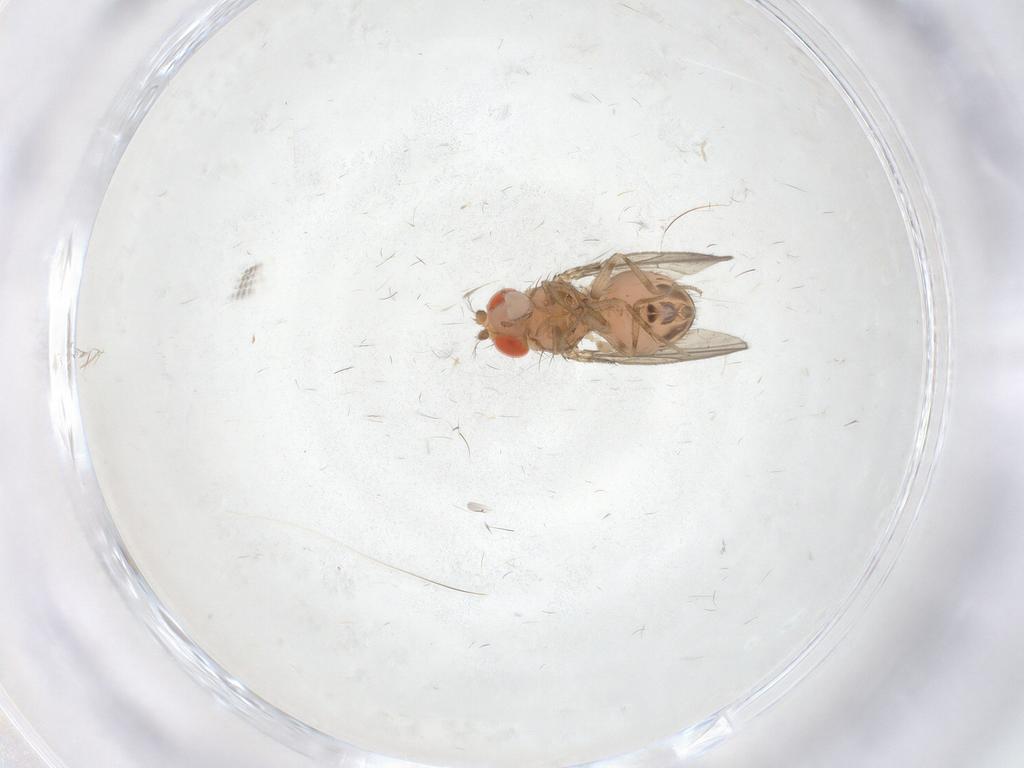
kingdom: Animalia
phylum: Arthropoda
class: Insecta
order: Diptera
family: Drosophilidae
